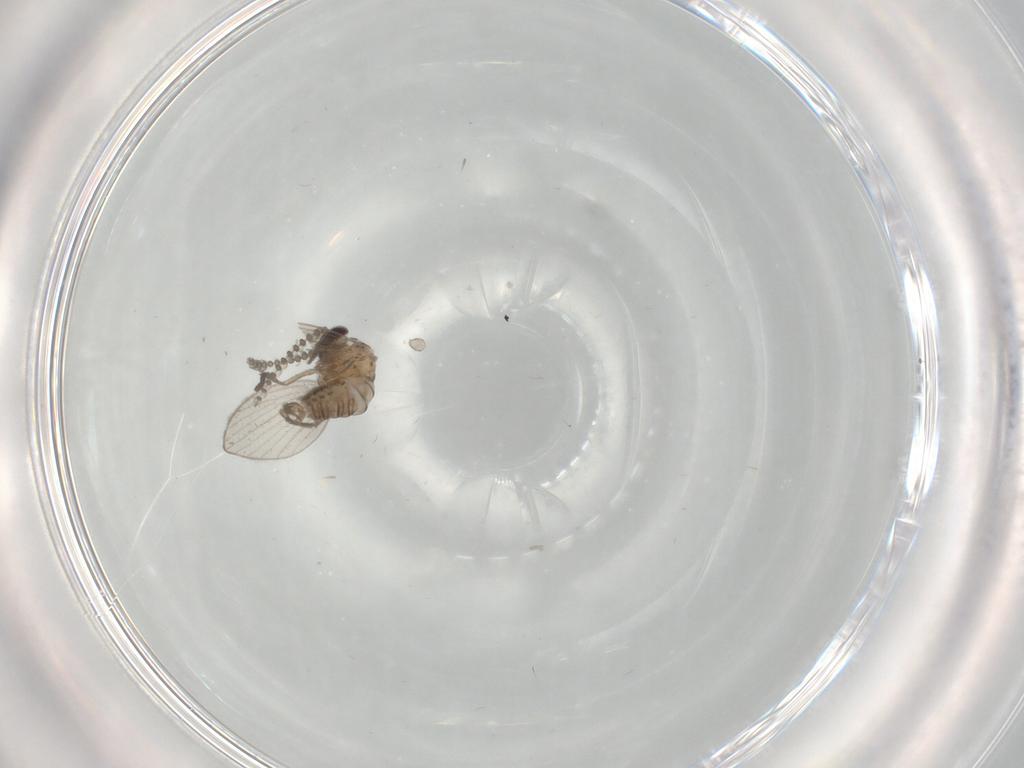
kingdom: Animalia
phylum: Arthropoda
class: Insecta
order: Diptera
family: Psychodidae
